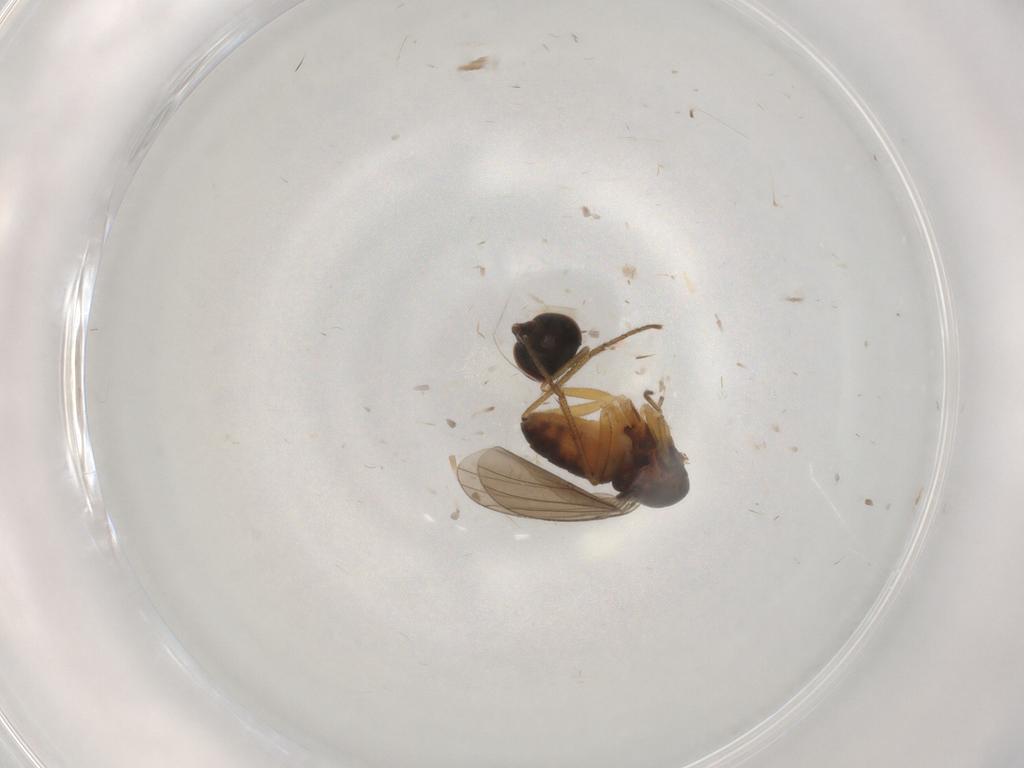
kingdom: Animalia
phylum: Arthropoda
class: Insecta
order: Diptera
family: Dolichopodidae
